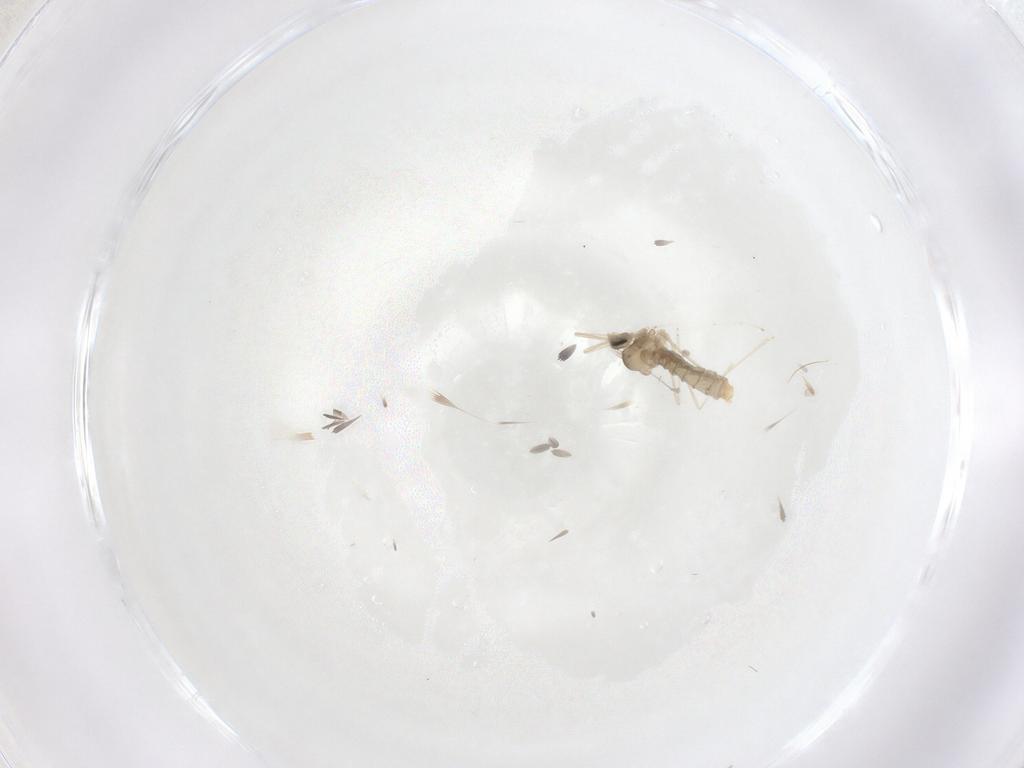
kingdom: Animalia
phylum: Arthropoda
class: Insecta
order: Diptera
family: Cecidomyiidae
